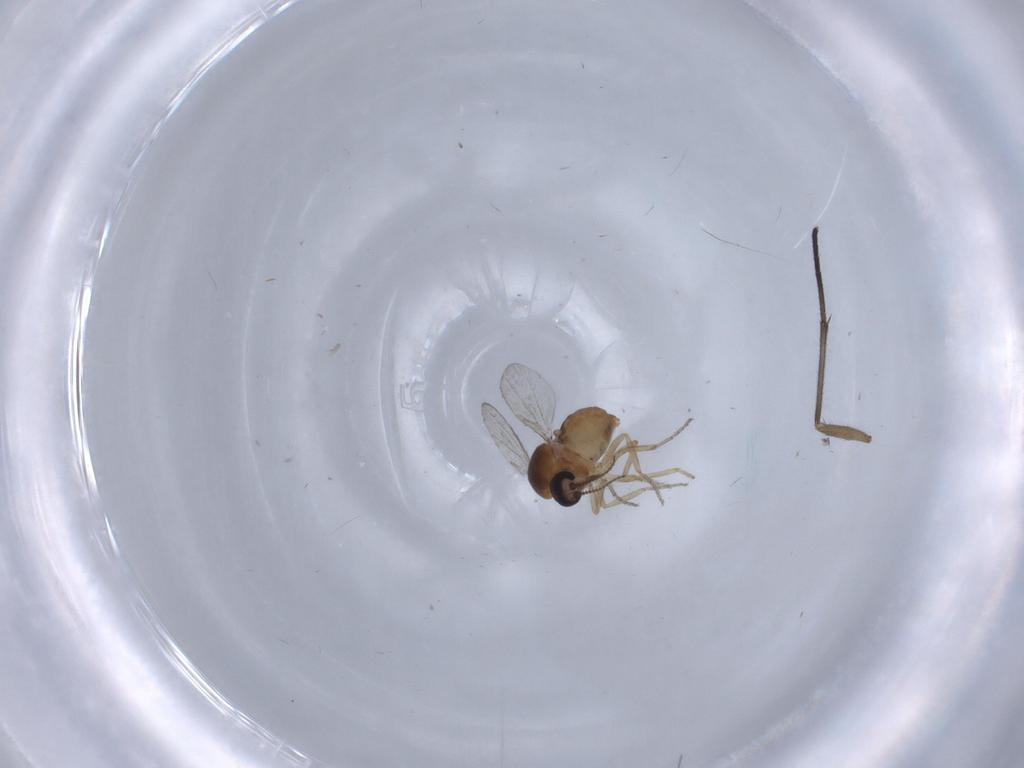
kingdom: Animalia
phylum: Arthropoda
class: Insecta
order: Diptera
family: Ceratopogonidae
